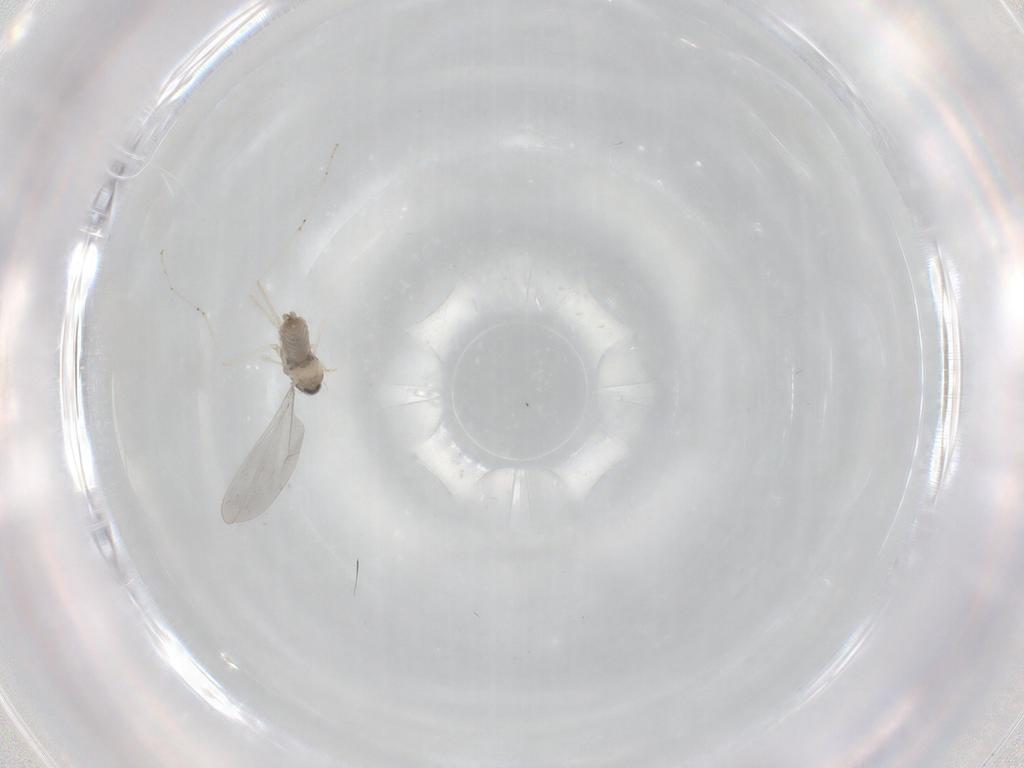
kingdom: Animalia
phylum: Arthropoda
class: Insecta
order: Diptera
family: Cecidomyiidae
